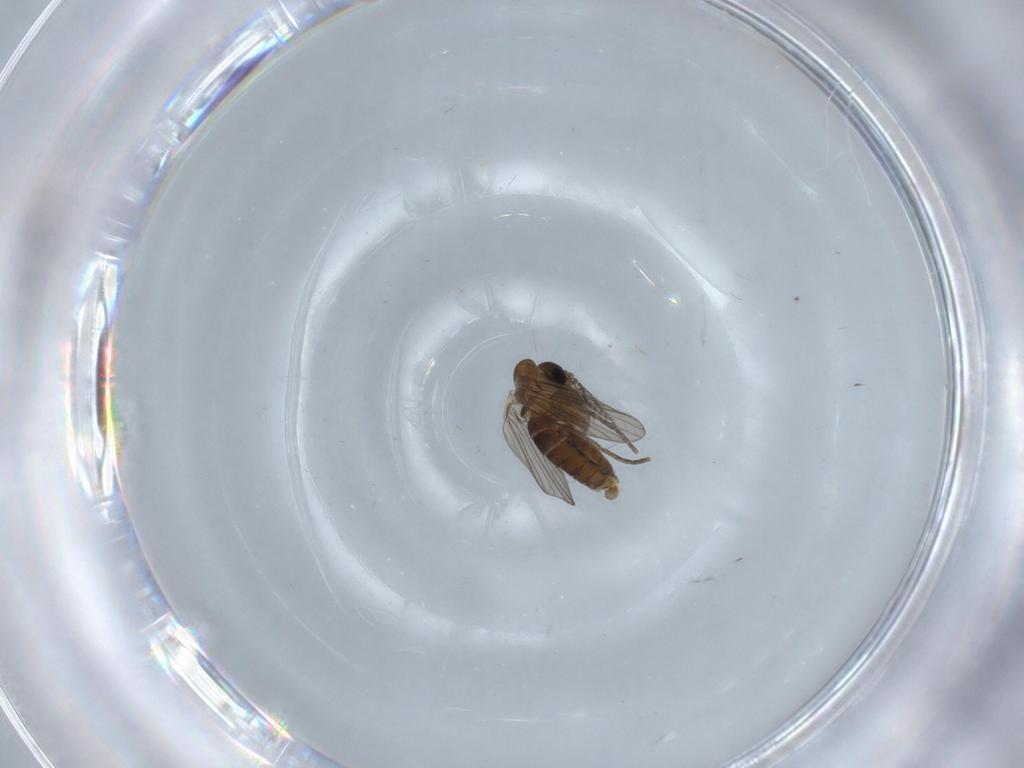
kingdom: Animalia
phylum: Arthropoda
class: Insecta
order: Diptera
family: Psychodidae
